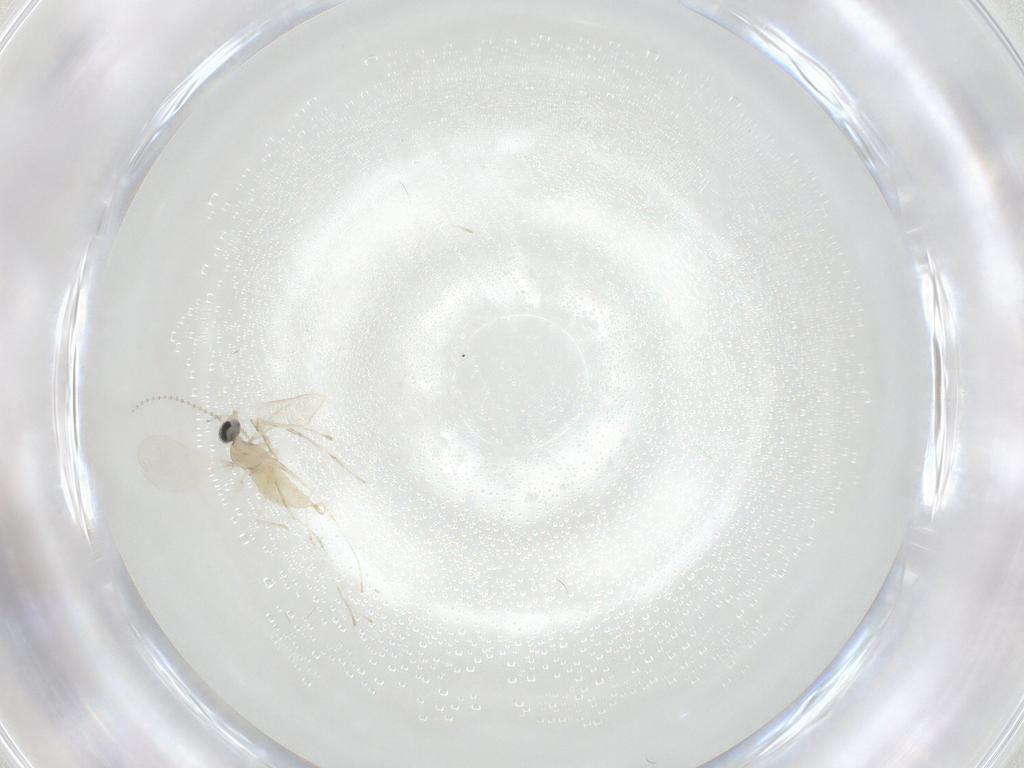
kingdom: Animalia
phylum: Arthropoda
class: Insecta
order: Diptera
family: Cecidomyiidae
